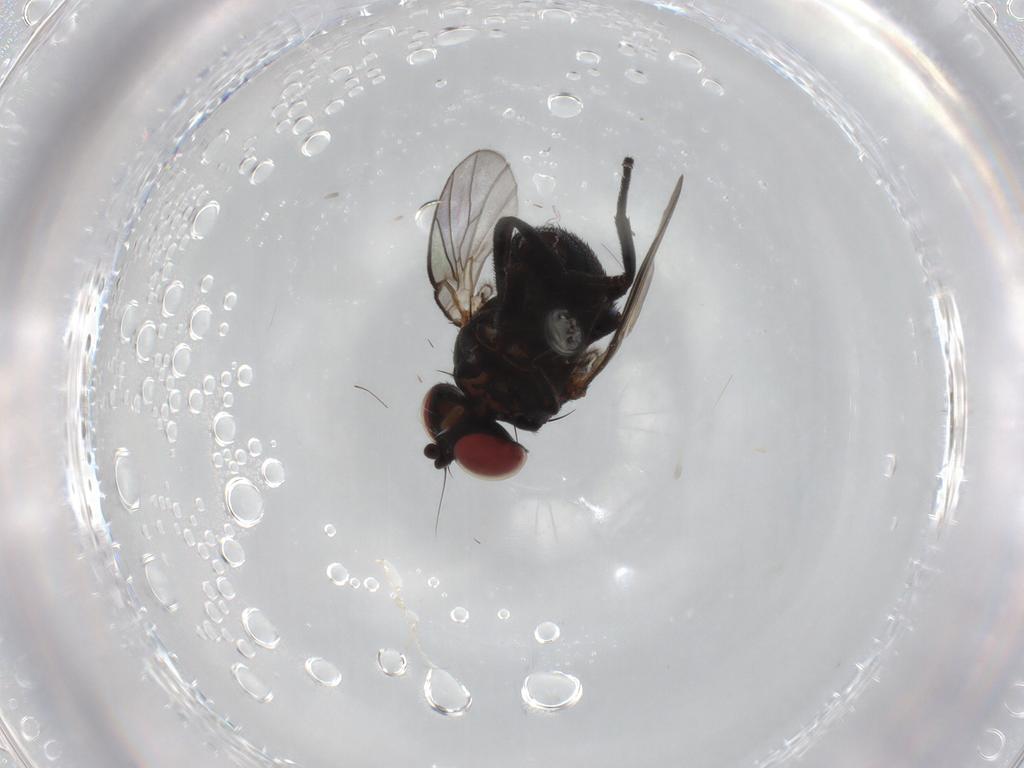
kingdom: Animalia
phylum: Arthropoda
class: Insecta
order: Diptera
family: Agromyzidae
